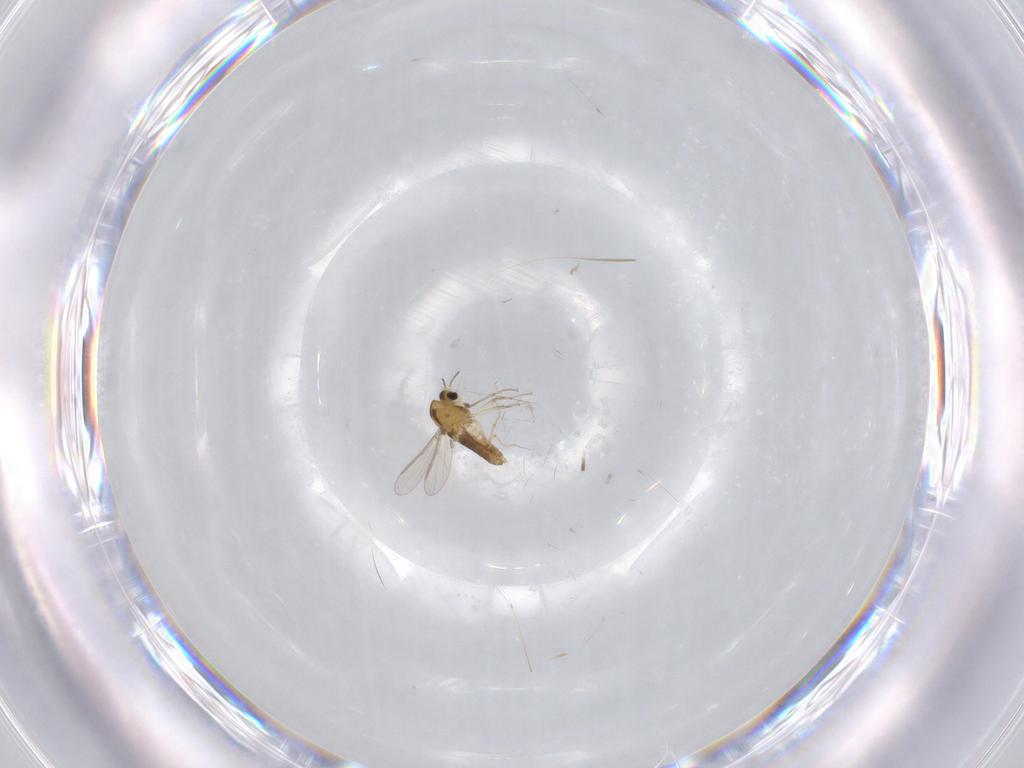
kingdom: Animalia
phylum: Arthropoda
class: Insecta
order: Diptera
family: Chironomidae
